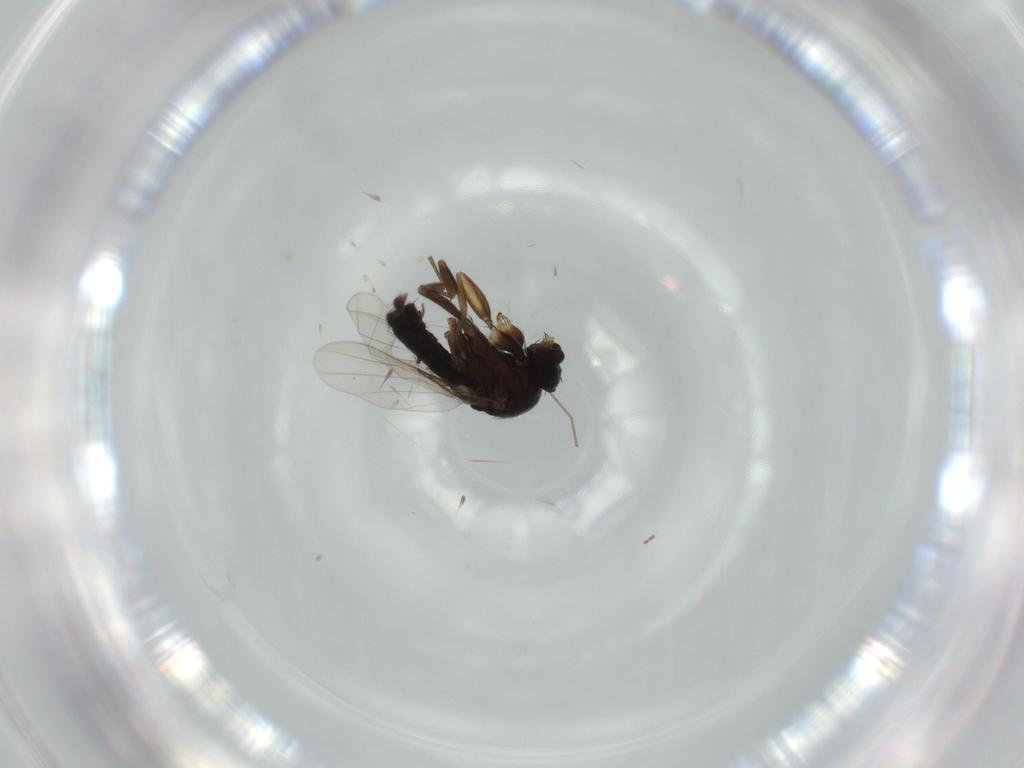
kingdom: Animalia
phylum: Arthropoda
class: Insecta
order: Diptera
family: Phoridae
